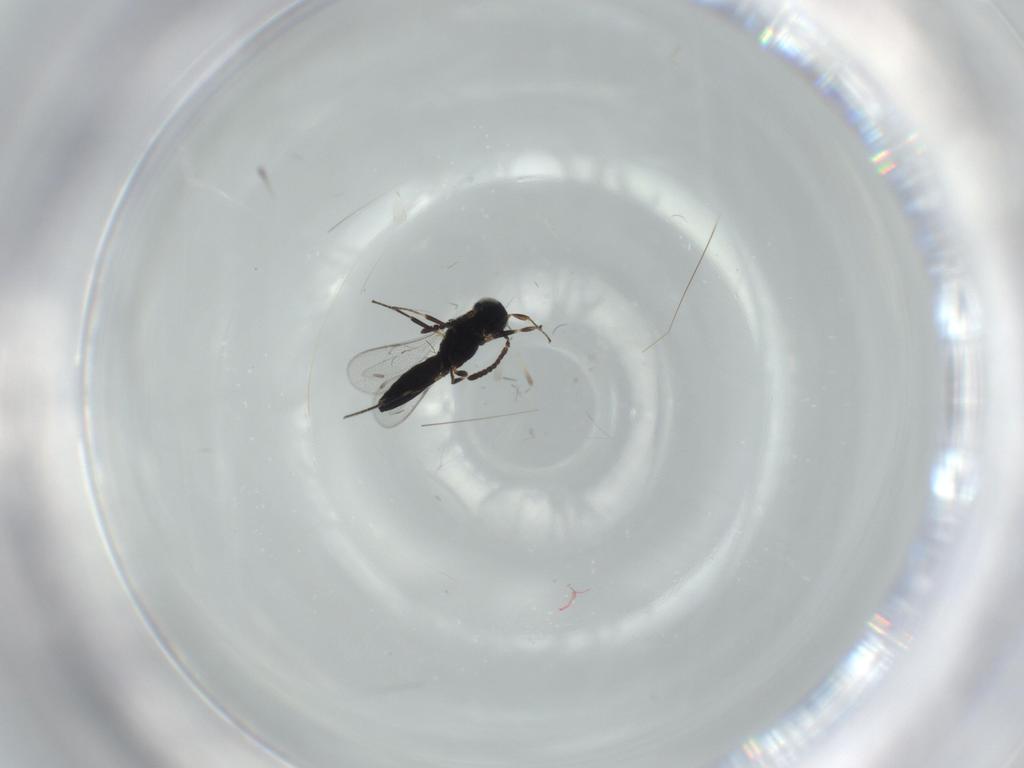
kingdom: Animalia
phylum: Arthropoda
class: Insecta
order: Hymenoptera
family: Scelionidae
